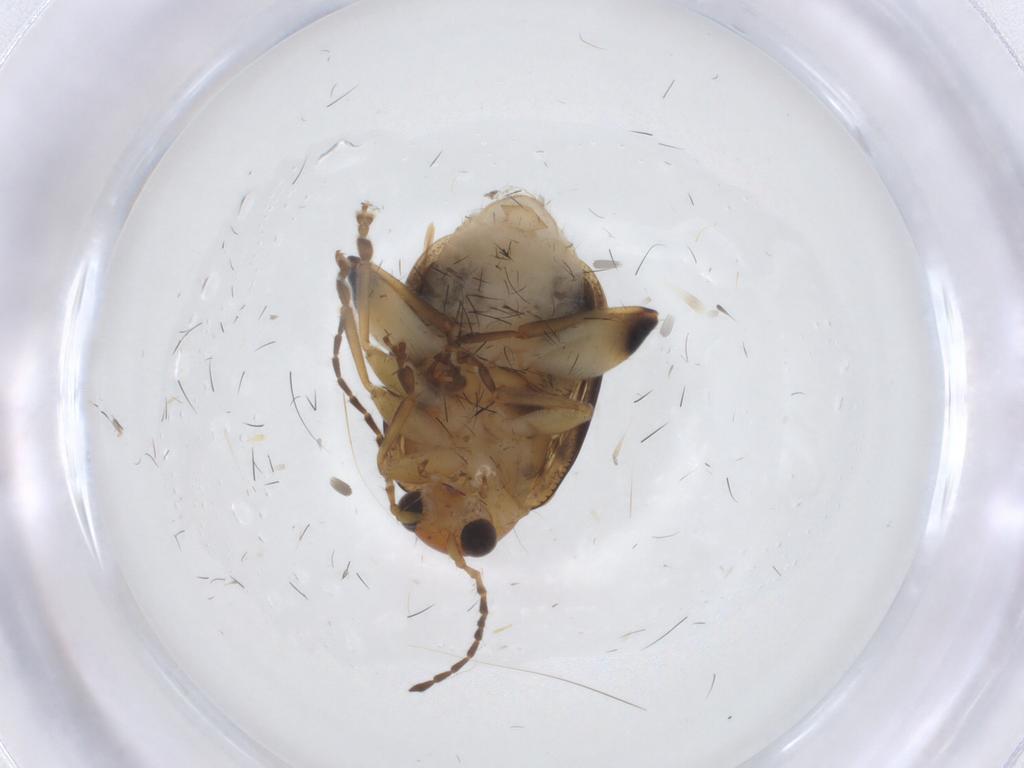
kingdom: Animalia
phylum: Arthropoda
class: Insecta
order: Coleoptera
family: Chrysomelidae
